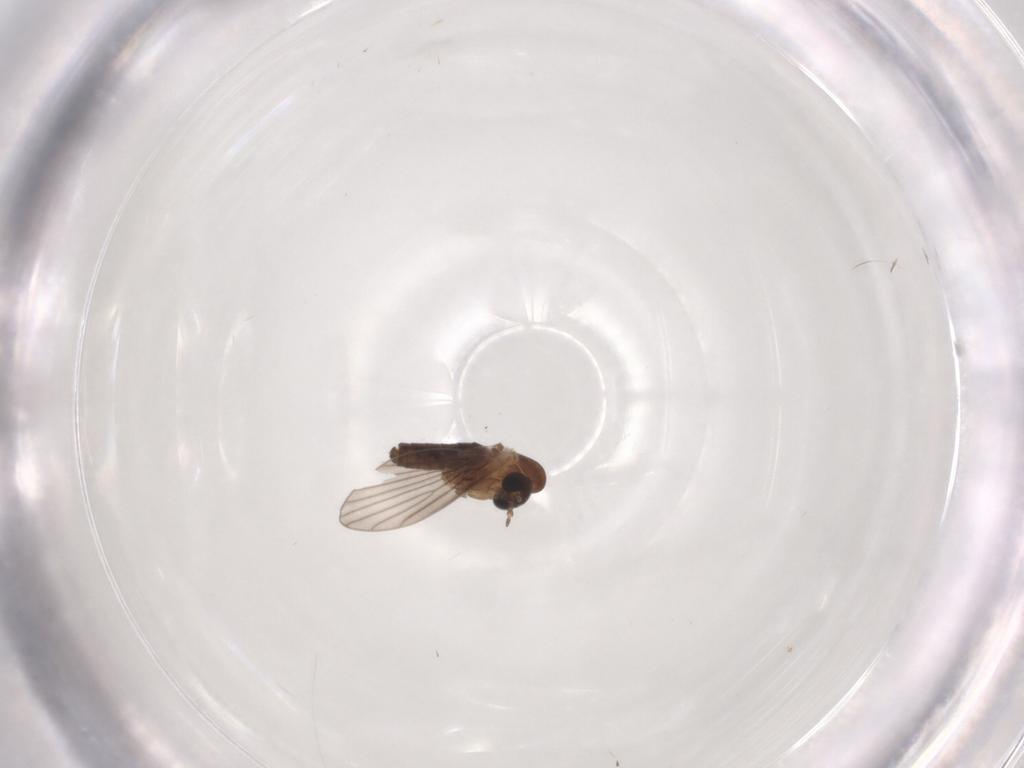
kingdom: Animalia
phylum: Arthropoda
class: Insecta
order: Diptera
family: Psychodidae
